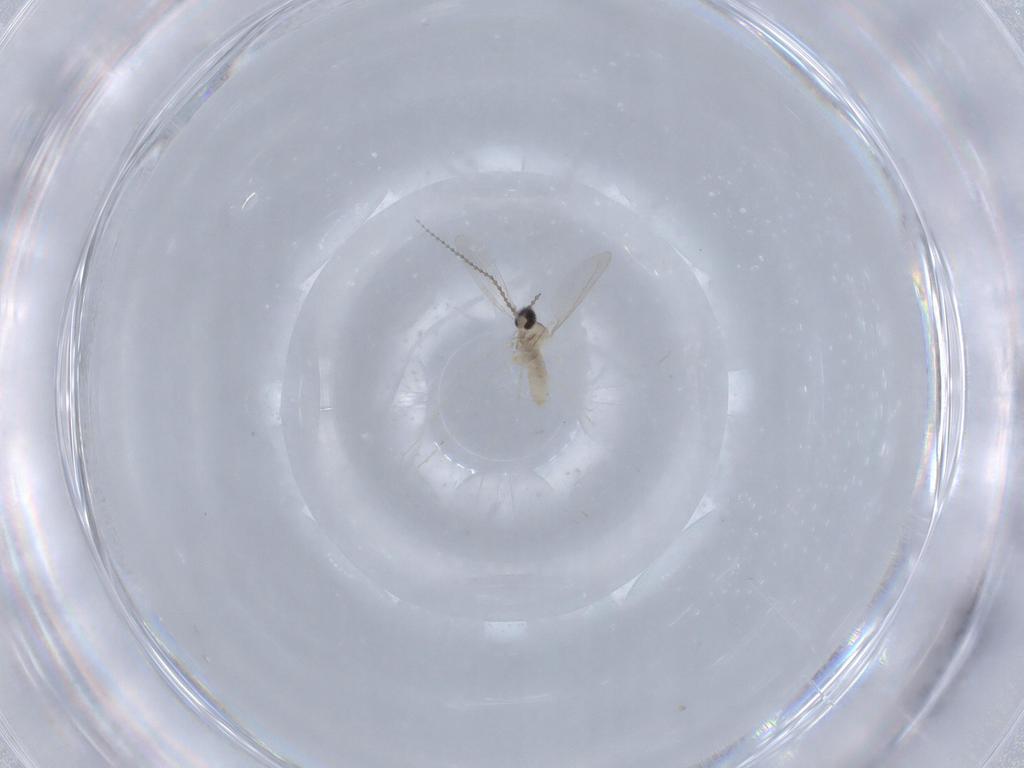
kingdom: Animalia
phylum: Arthropoda
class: Insecta
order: Diptera
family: Cecidomyiidae
